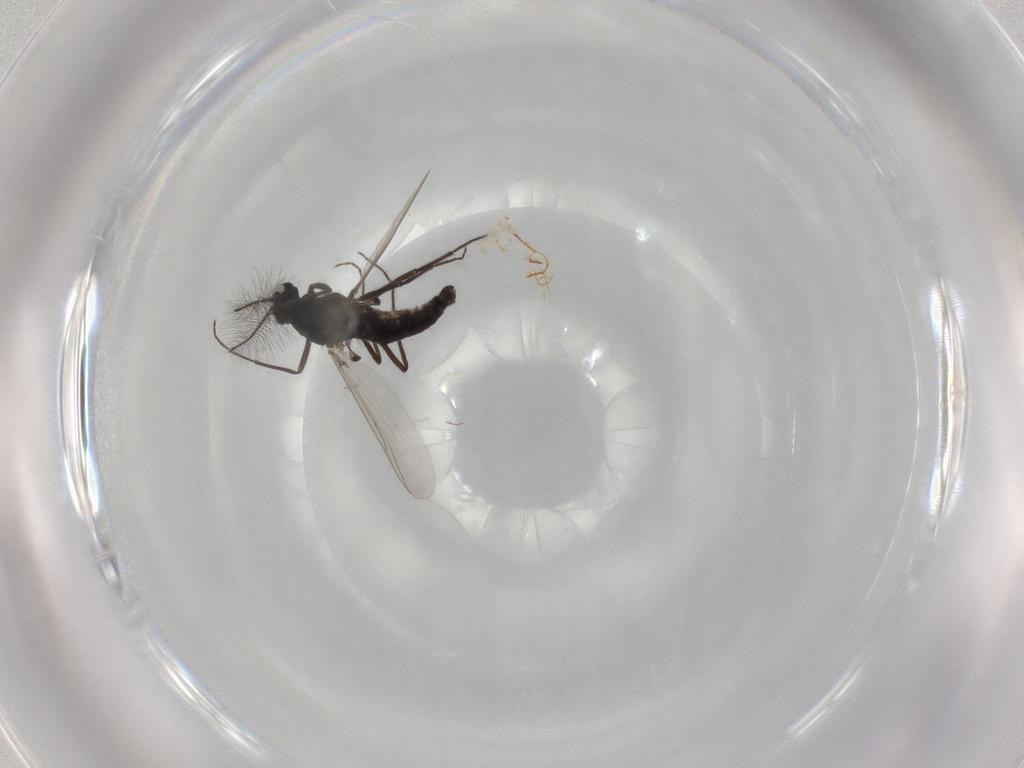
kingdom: Animalia
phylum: Arthropoda
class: Insecta
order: Diptera
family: Chironomidae
